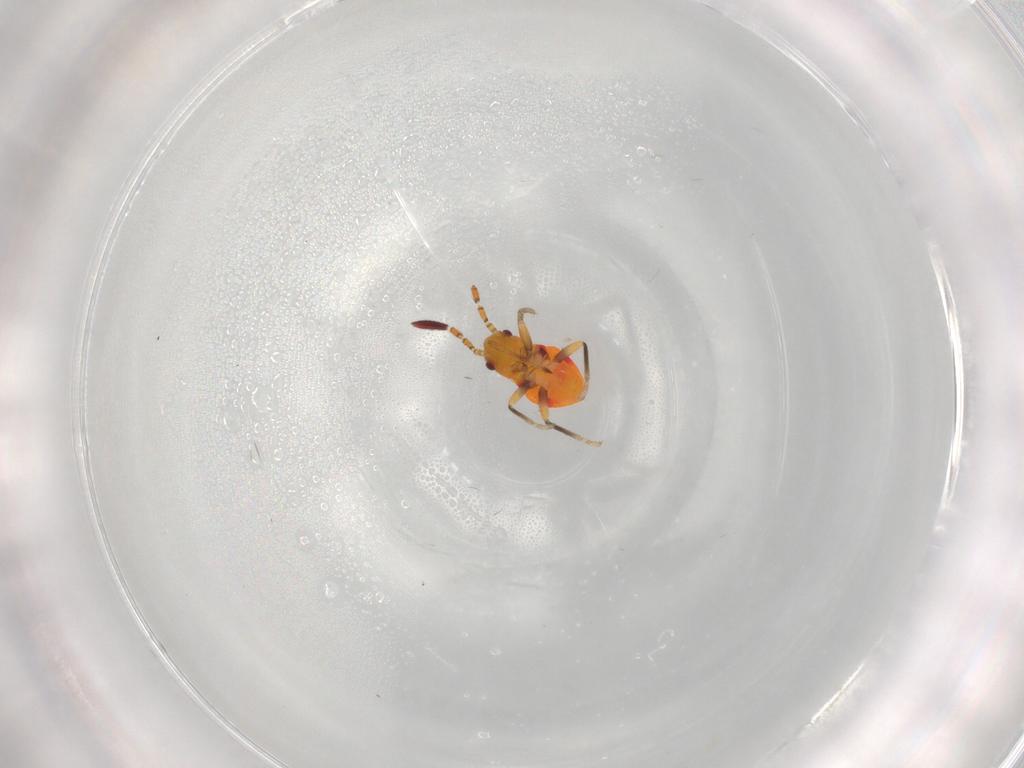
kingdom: Animalia
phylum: Arthropoda
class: Insecta
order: Hemiptera
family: Rhyparochromidae
